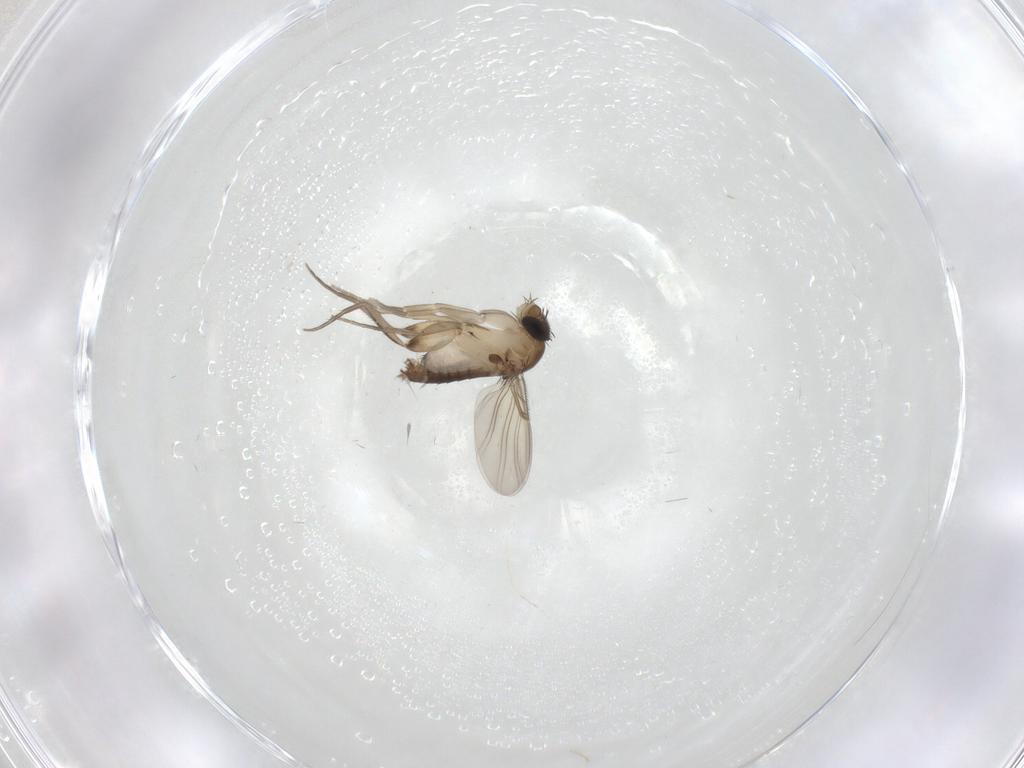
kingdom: Animalia
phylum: Arthropoda
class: Insecta
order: Diptera
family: Phoridae
